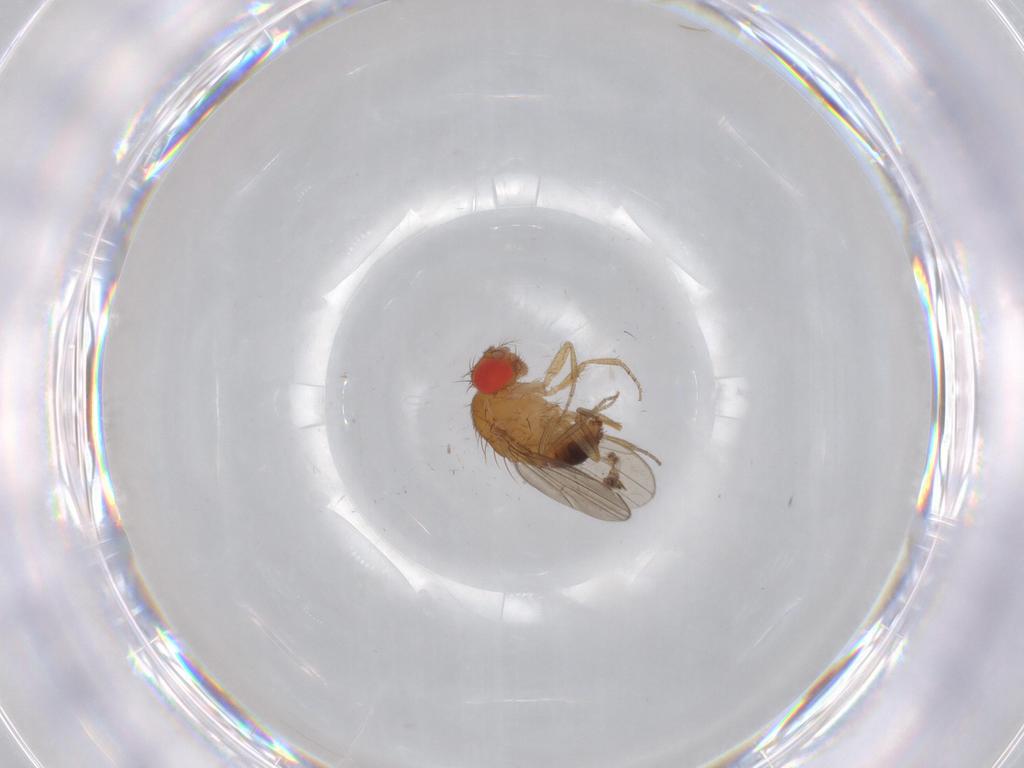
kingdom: Animalia
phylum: Arthropoda
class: Insecta
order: Diptera
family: Drosophilidae
